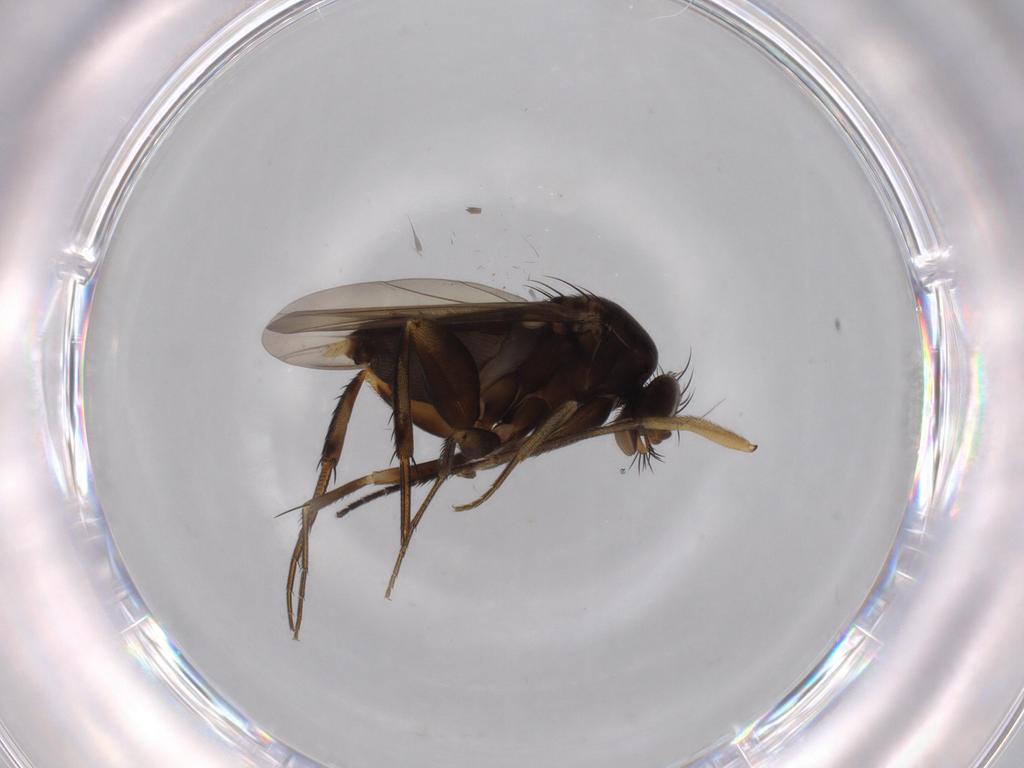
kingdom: Animalia
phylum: Arthropoda
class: Insecta
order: Diptera
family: Phoridae
